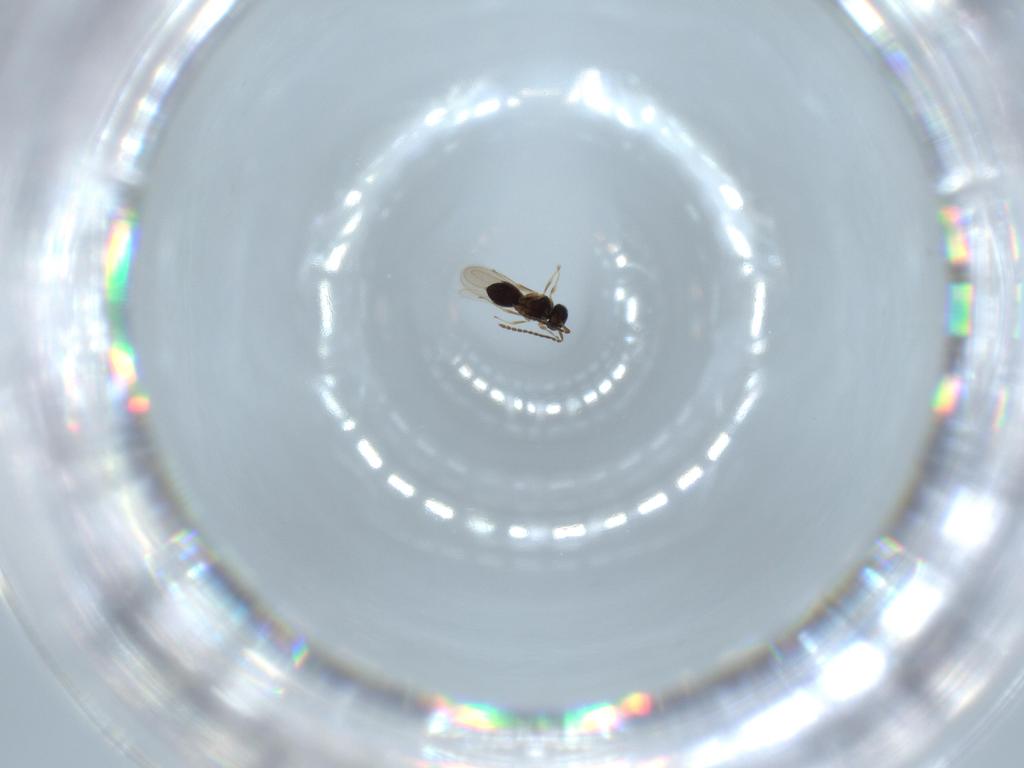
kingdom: Animalia
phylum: Arthropoda
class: Insecta
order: Hymenoptera
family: Scelionidae
